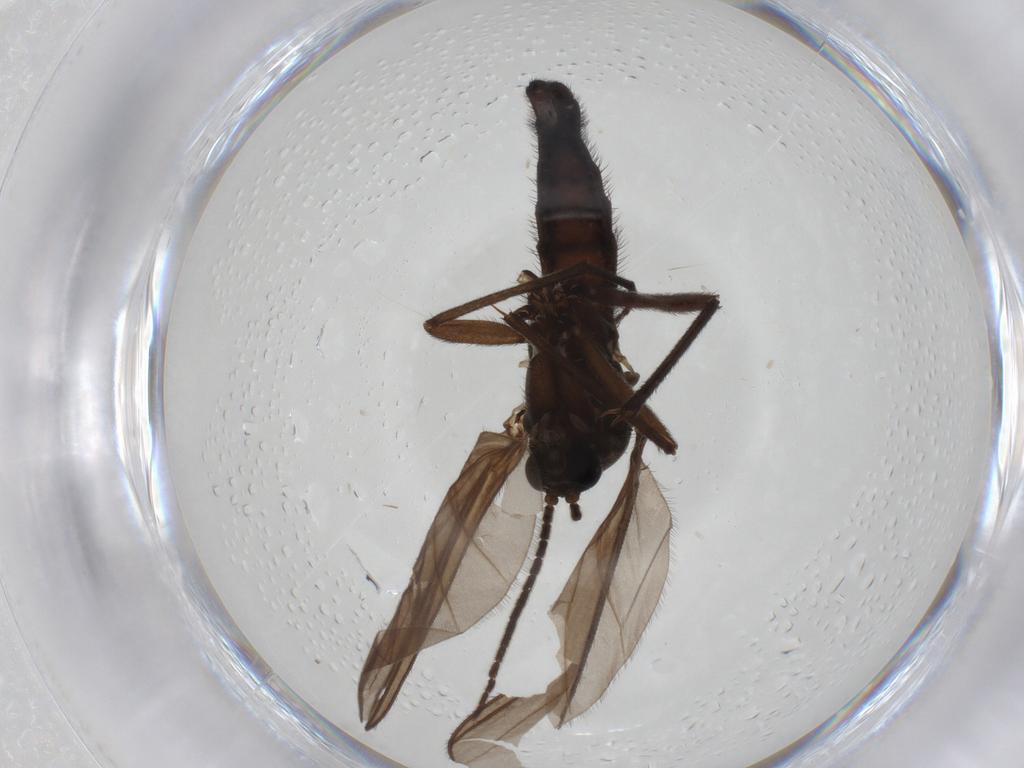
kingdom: Animalia
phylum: Arthropoda
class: Insecta
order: Diptera
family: Sciaridae
